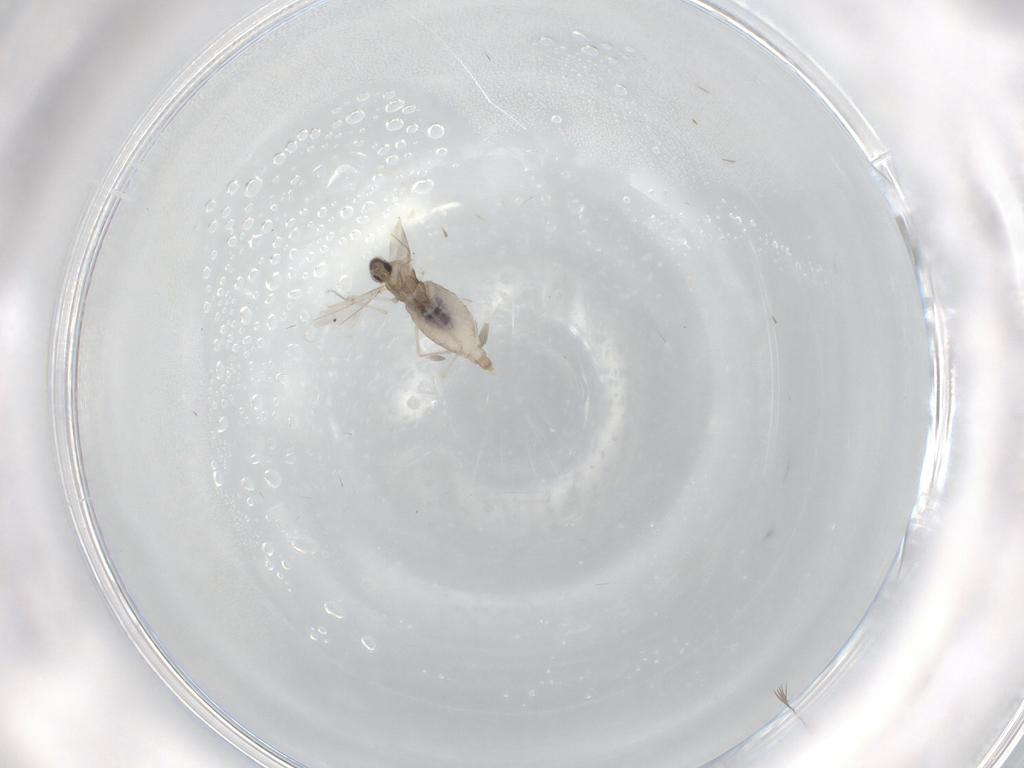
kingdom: Animalia
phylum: Arthropoda
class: Insecta
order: Diptera
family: Cecidomyiidae
